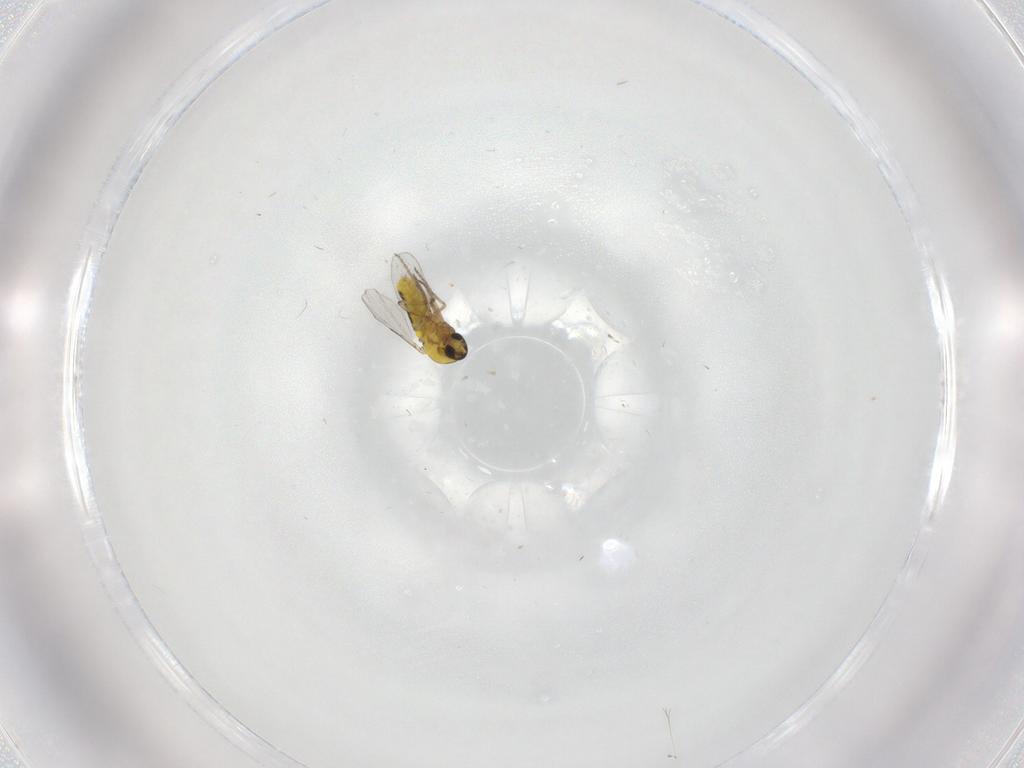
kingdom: Animalia
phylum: Arthropoda
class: Insecta
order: Diptera
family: Ceratopogonidae
